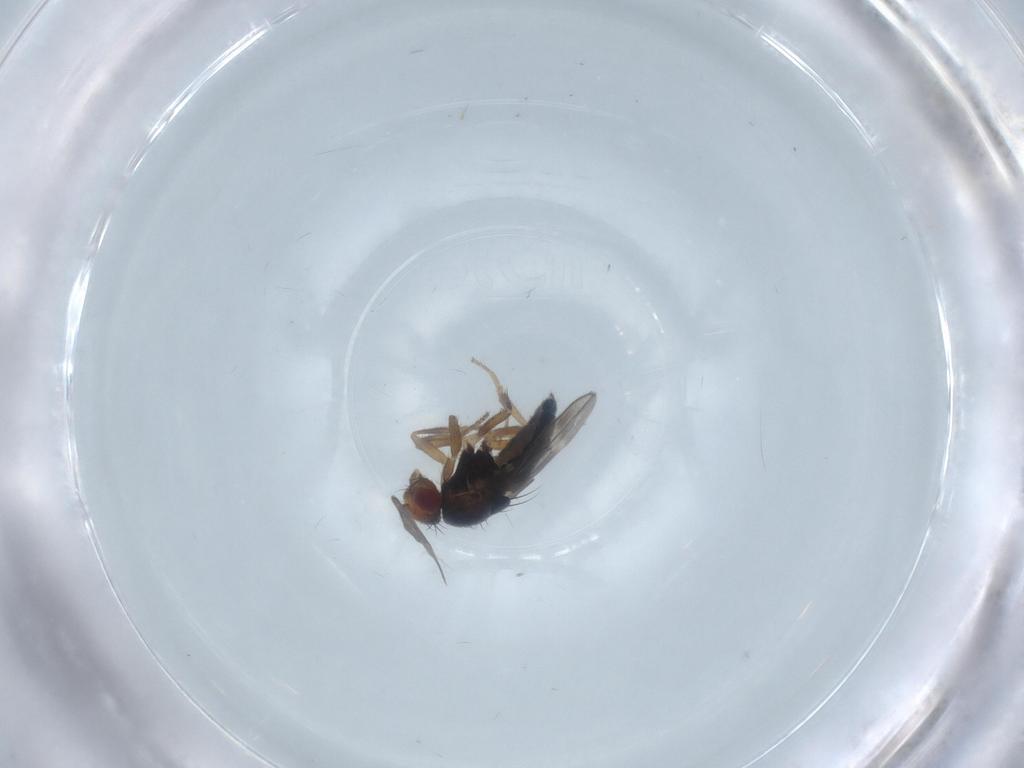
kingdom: Animalia
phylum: Arthropoda
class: Insecta
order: Diptera
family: Sphaeroceridae
